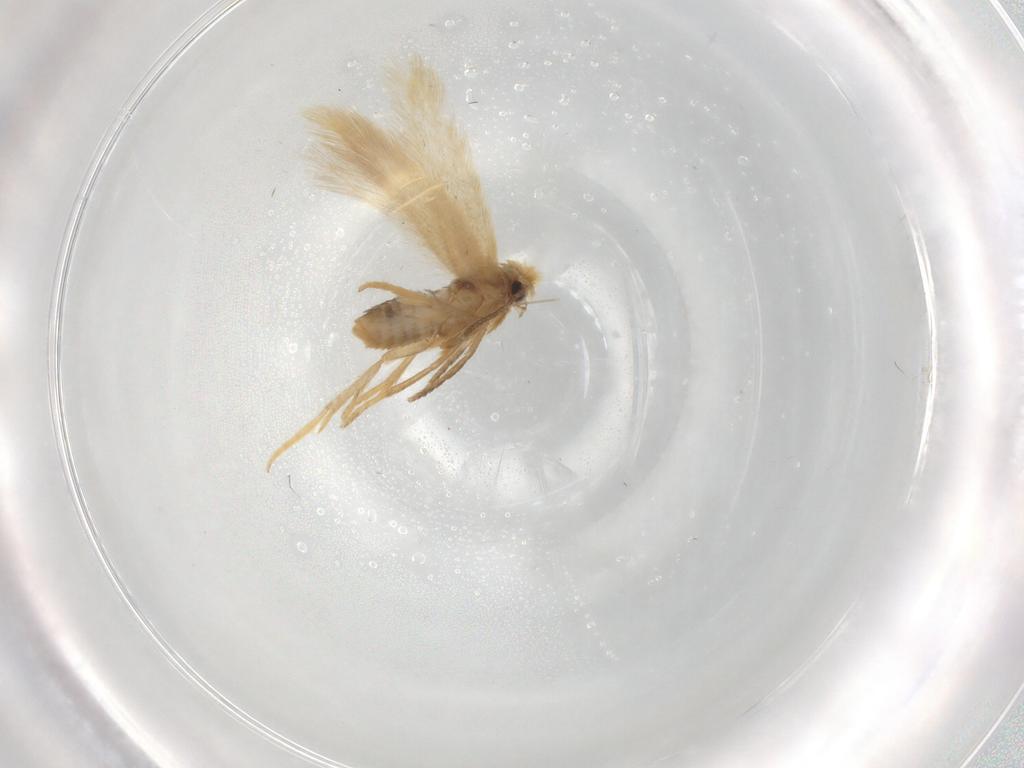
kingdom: Animalia
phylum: Arthropoda
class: Insecta
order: Lepidoptera
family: Nepticulidae
